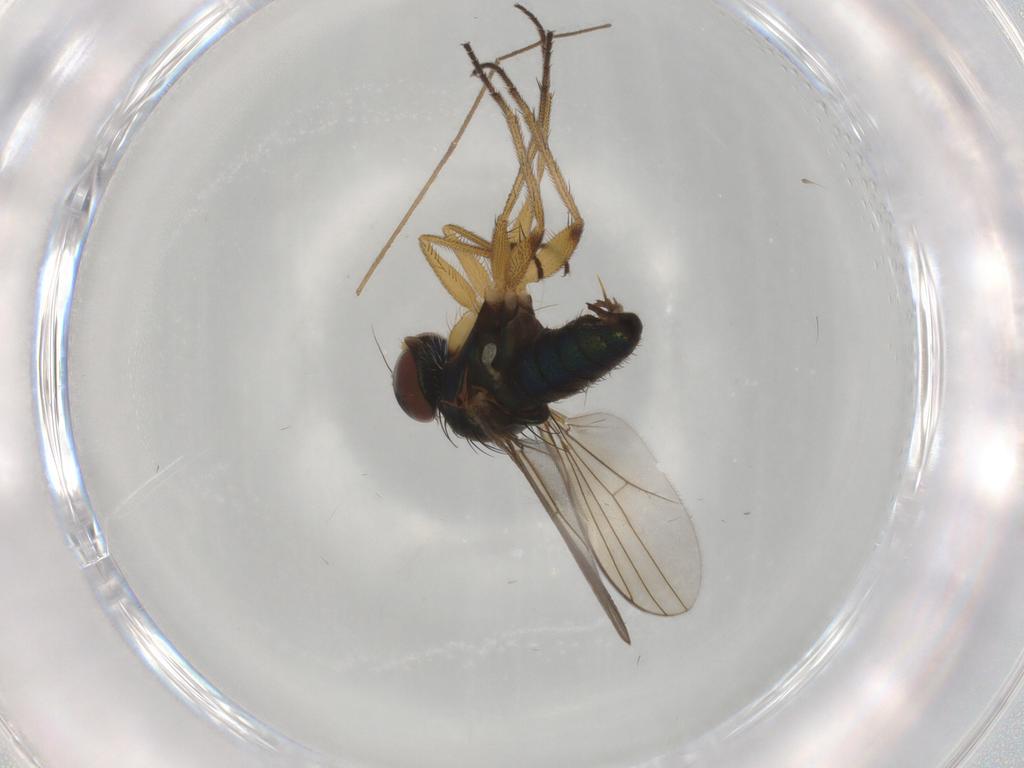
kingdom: Animalia
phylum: Arthropoda
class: Insecta
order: Diptera
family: Dolichopodidae
